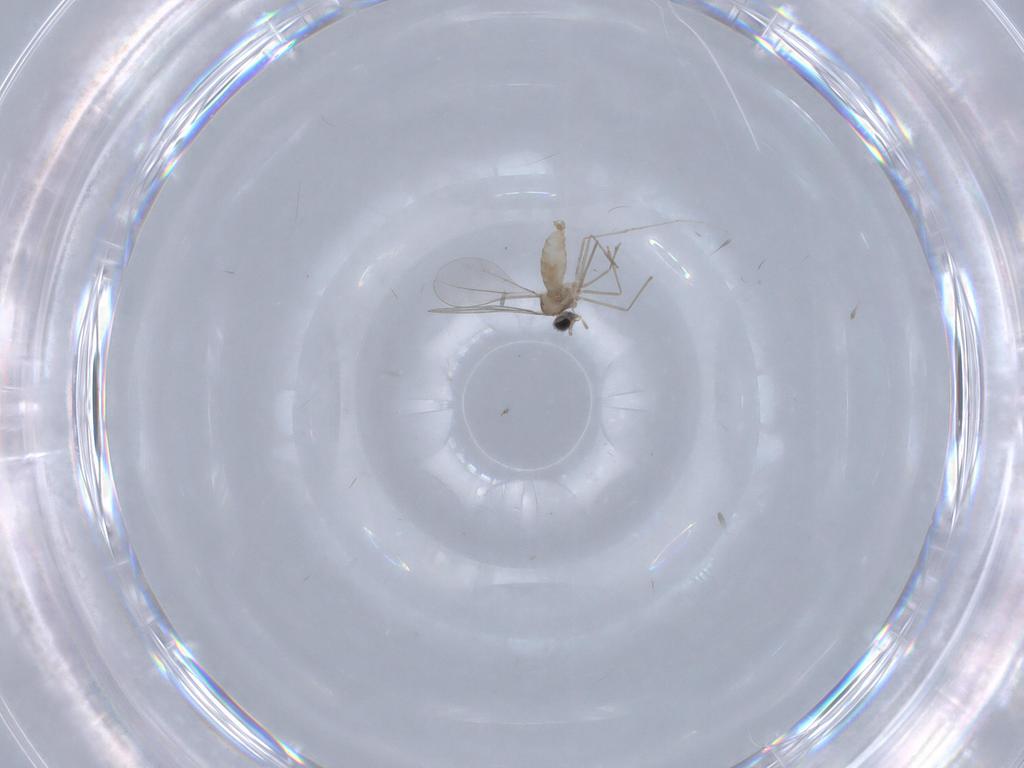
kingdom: Animalia
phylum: Arthropoda
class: Insecta
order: Diptera
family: Cecidomyiidae
